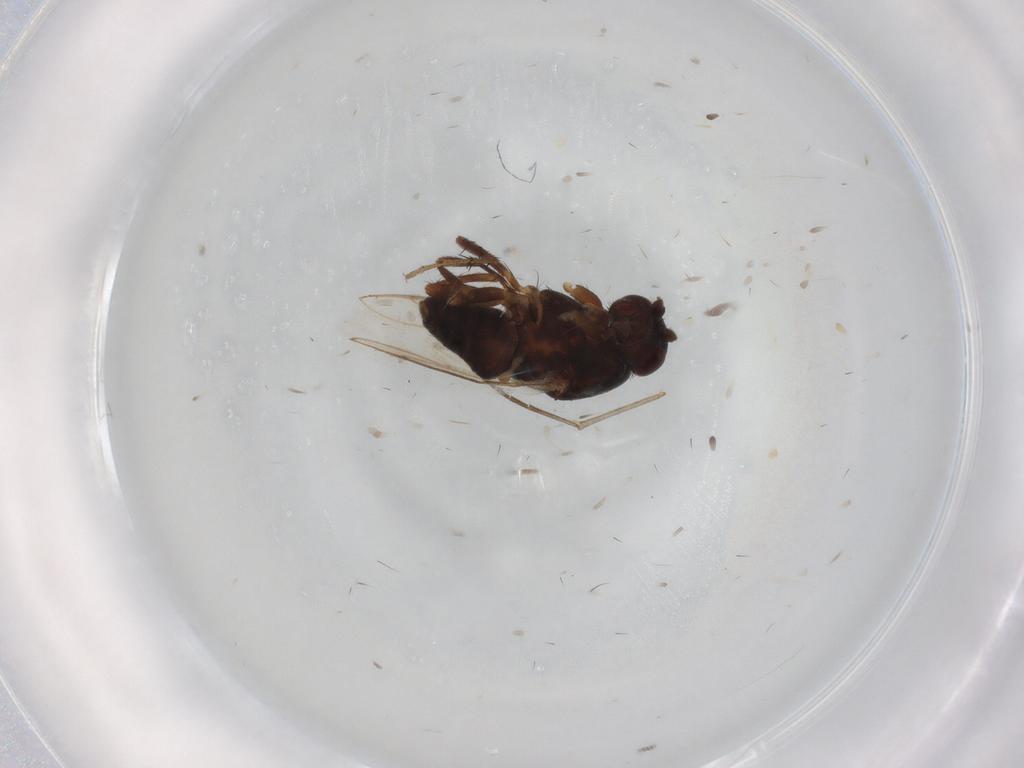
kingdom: Animalia
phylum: Arthropoda
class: Insecta
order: Diptera
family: Sphaeroceridae
